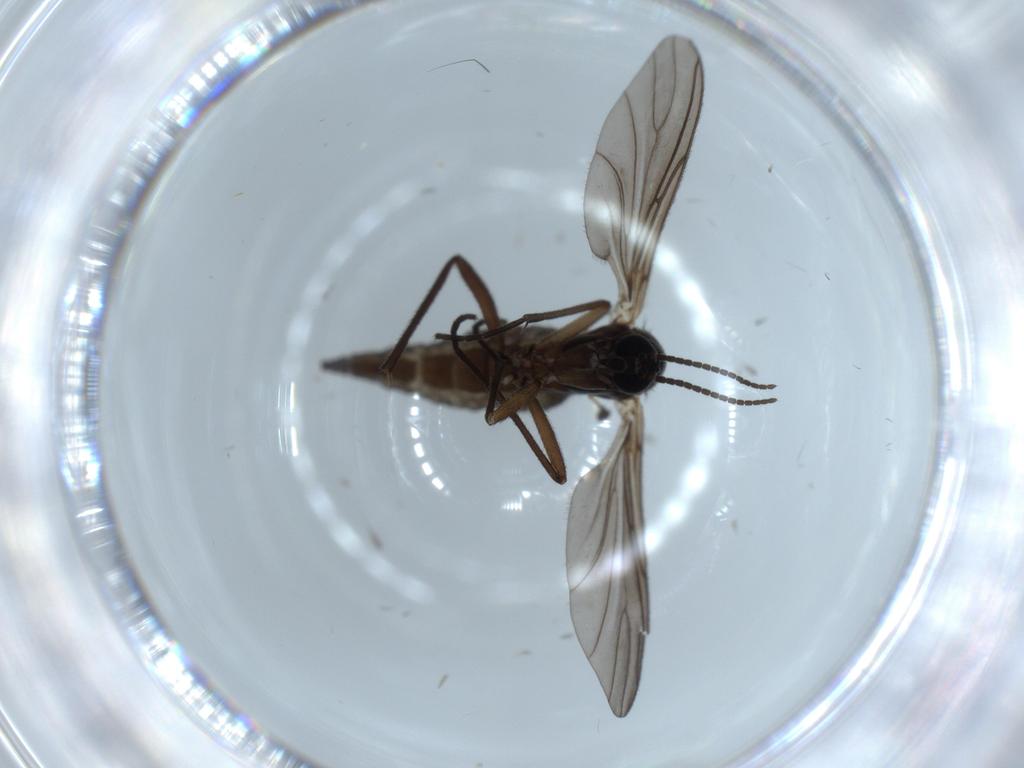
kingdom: Animalia
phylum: Arthropoda
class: Insecta
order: Diptera
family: Sciaridae
